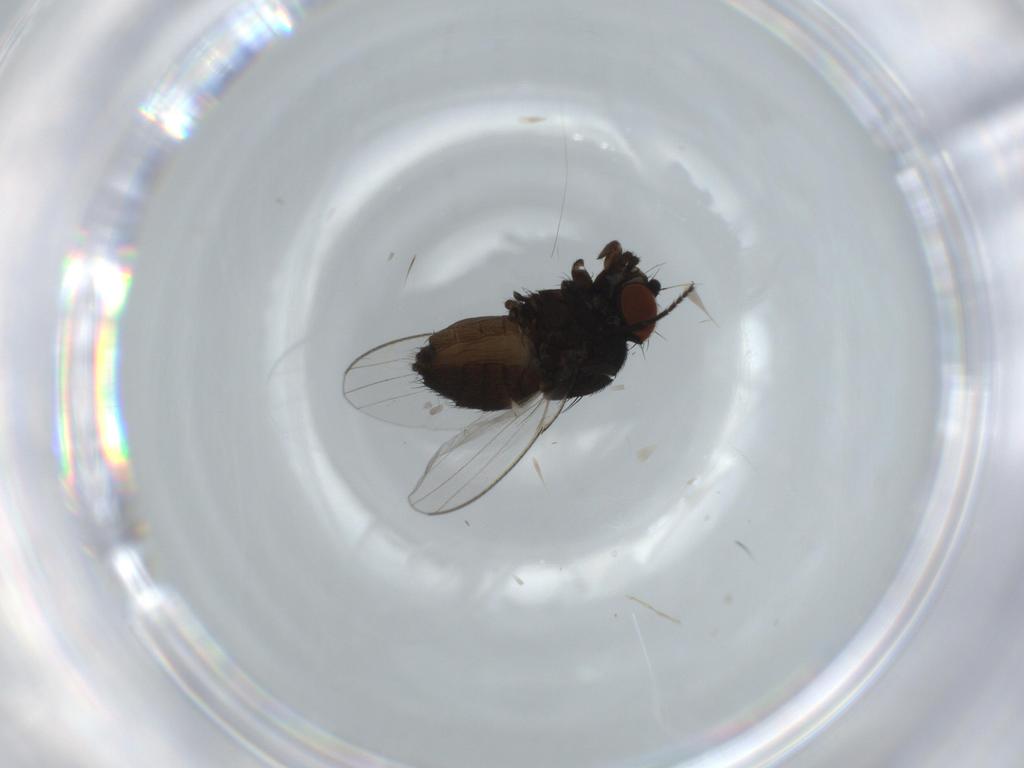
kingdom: Animalia
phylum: Arthropoda
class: Insecta
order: Diptera
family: Milichiidae
